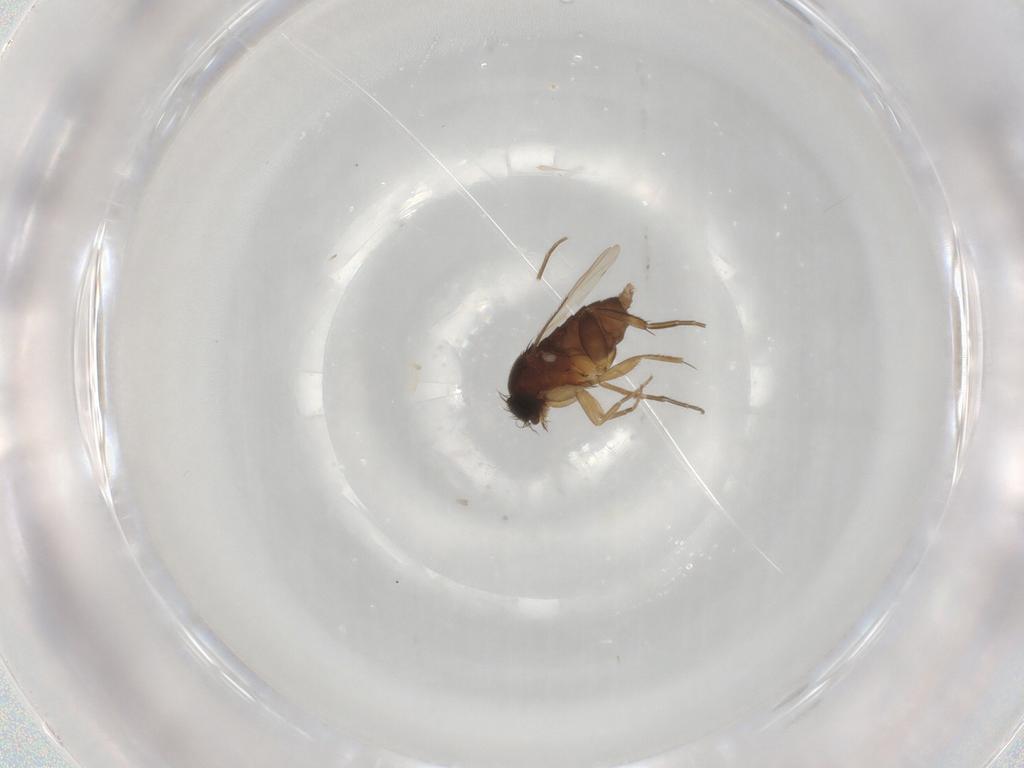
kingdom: Animalia
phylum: Arthropoda
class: Insecta
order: Diptera
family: Phoridae
